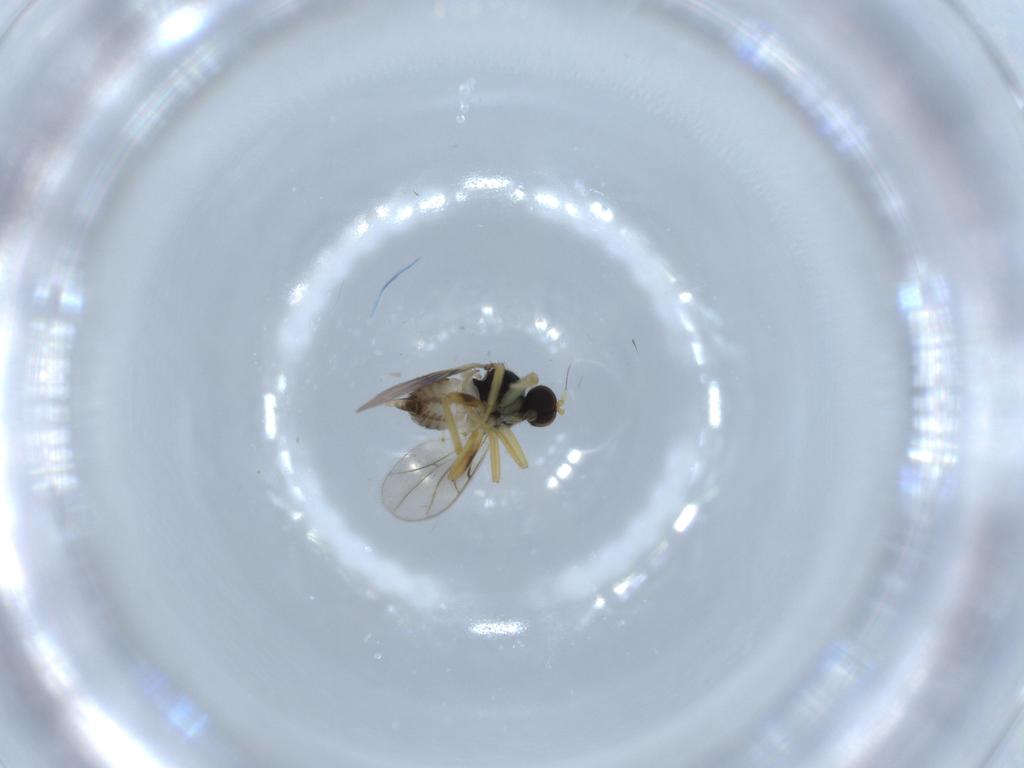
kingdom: Animalia
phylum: Arthropoda
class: Insecta
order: Diptera
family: Hybotidae
